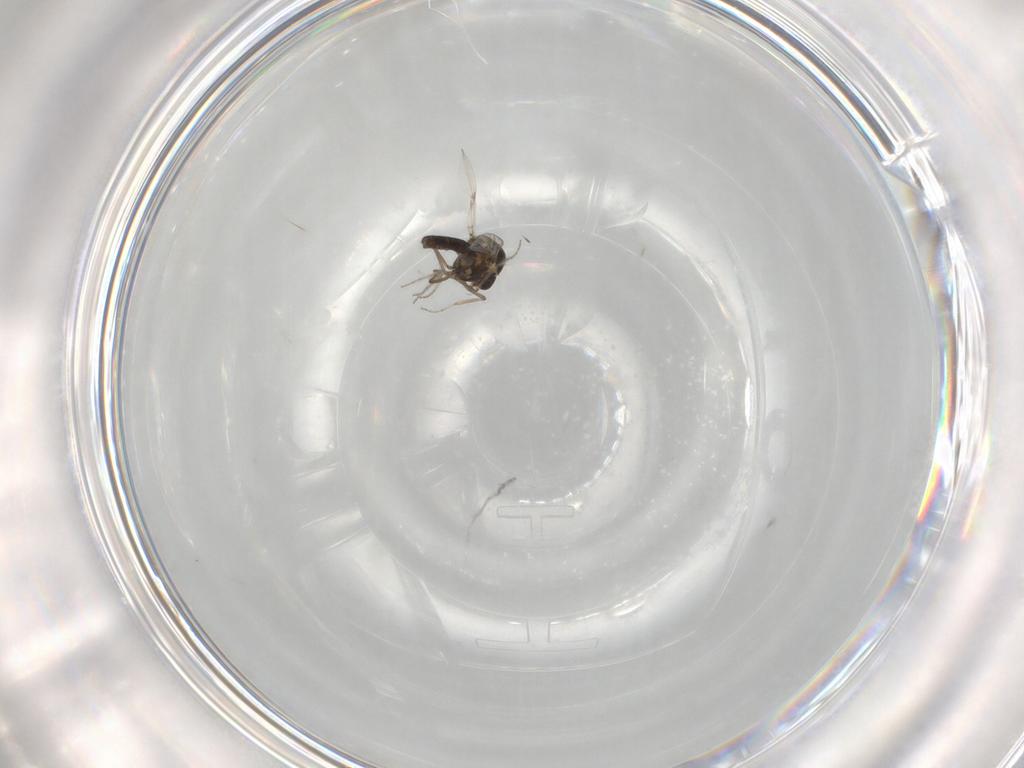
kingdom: Animalia
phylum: Arthropoda
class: Insecta
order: Diptera
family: Ceratopogonidae
